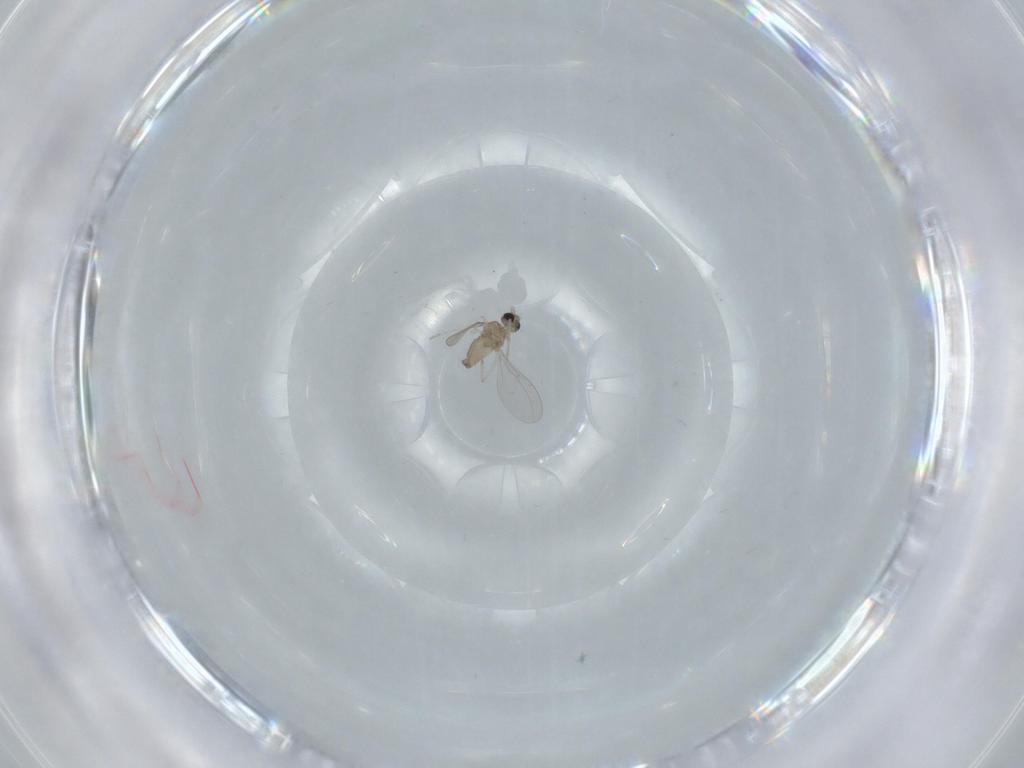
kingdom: Animalia
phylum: Arthropoda
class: Insecta
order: Diptera
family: Cecidomyiidae
